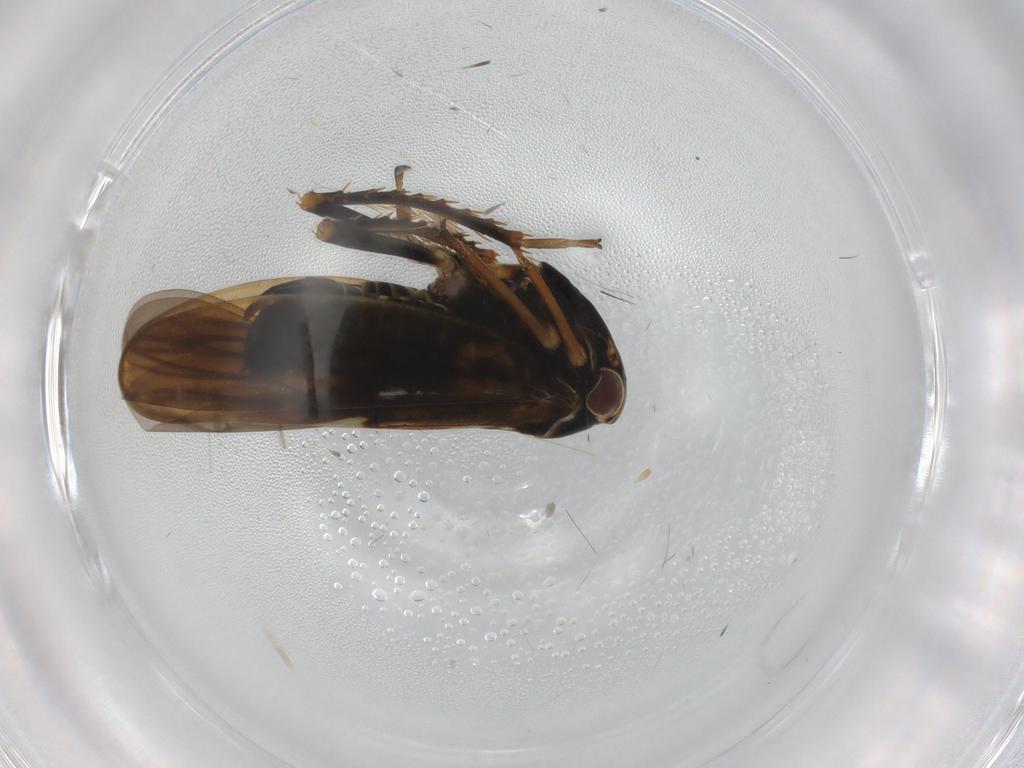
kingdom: Animalia
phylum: Arthropoda
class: Insecta
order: Hemiptera
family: Cicadellidae
